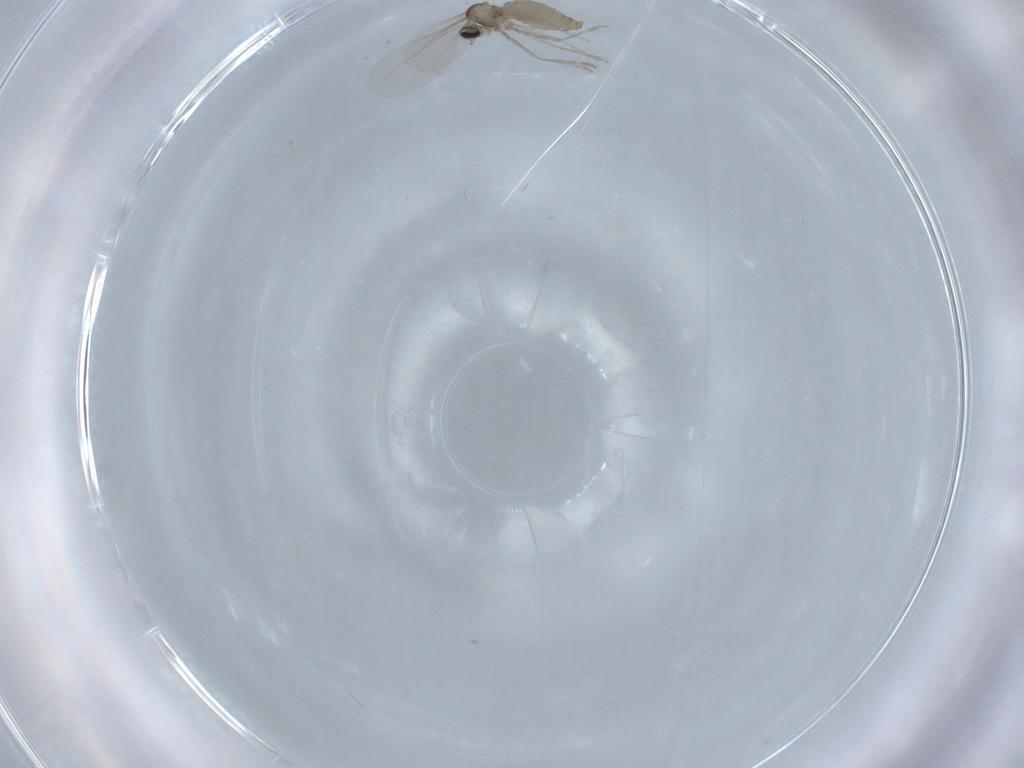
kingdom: Animalia
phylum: Arthropoda
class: Insecta
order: Diptera
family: Cecidomyiidae
